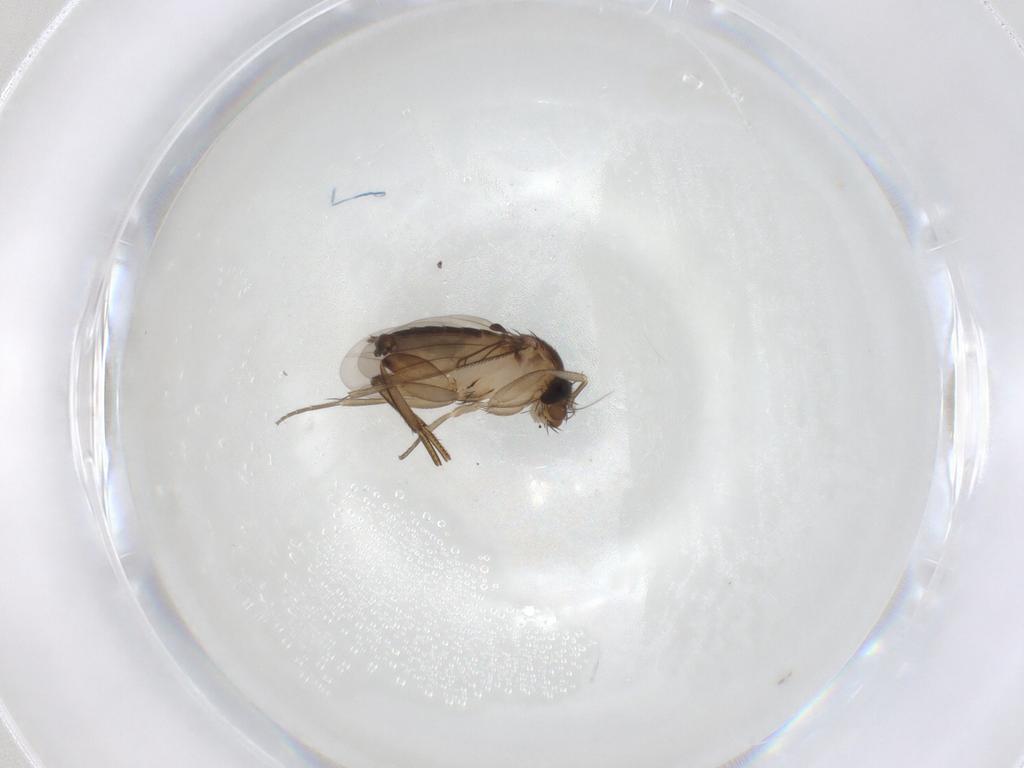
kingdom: Animalia
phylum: Arthropoda
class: Insecta
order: Diptera
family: Phoridae
